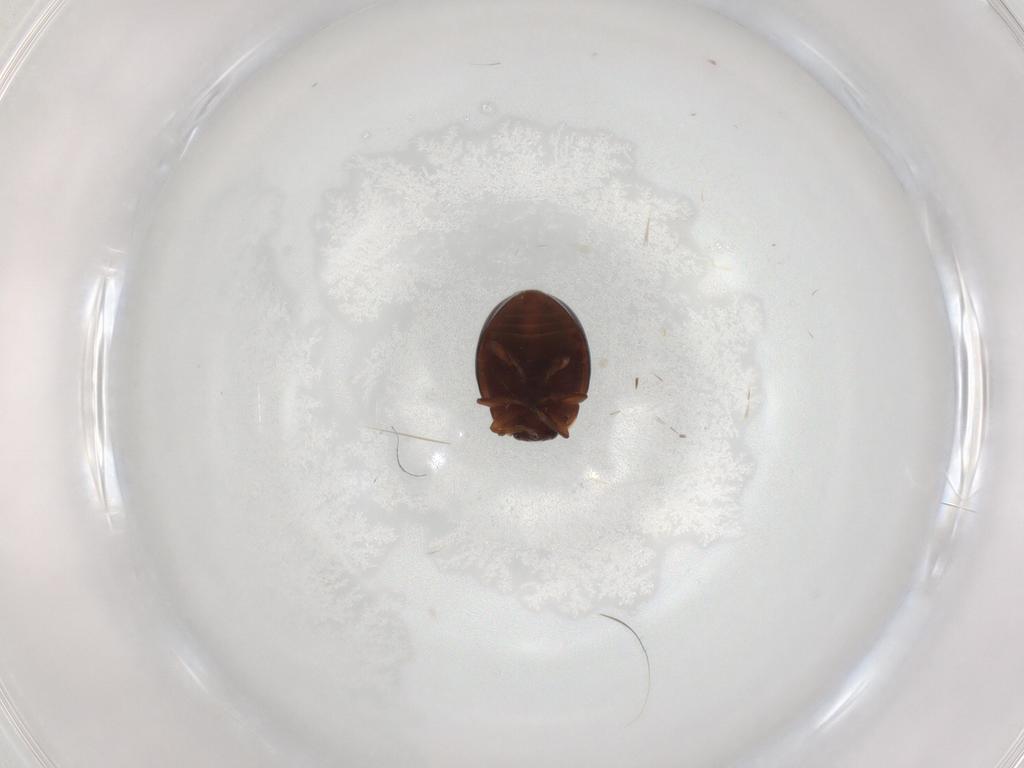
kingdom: Animalia
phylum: Arthropoda
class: Insecta
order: Coleoptera
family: Coccinellidae
